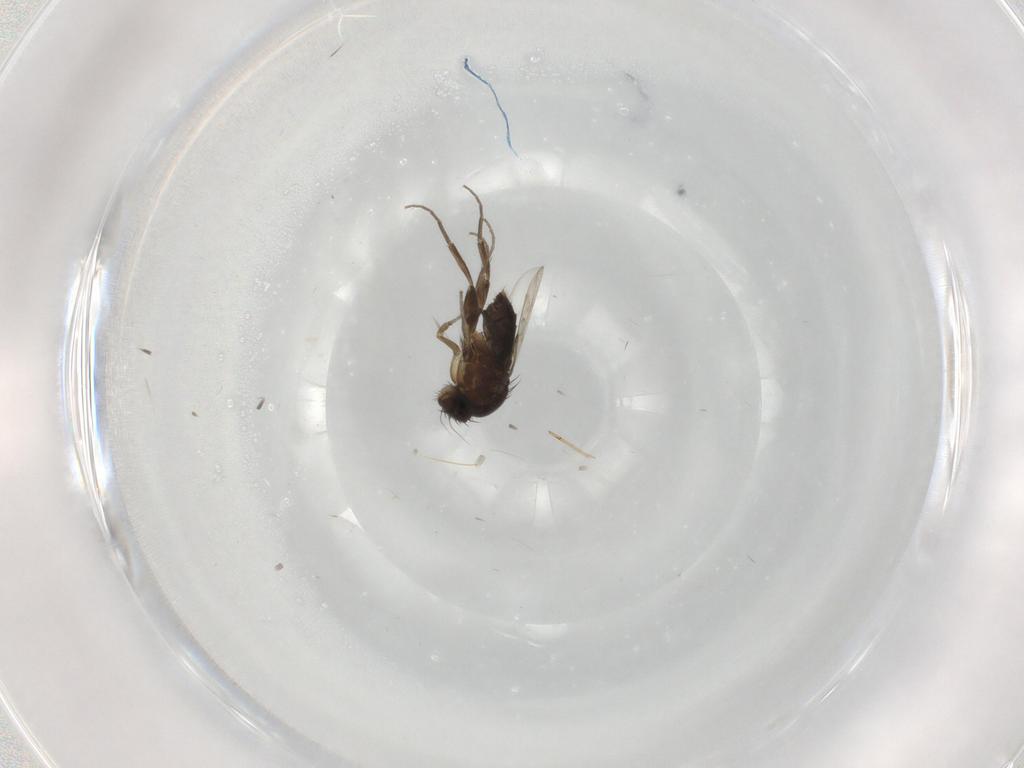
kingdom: Animalia
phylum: Arthropoda
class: Insecta
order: Diptera
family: Phoridae
